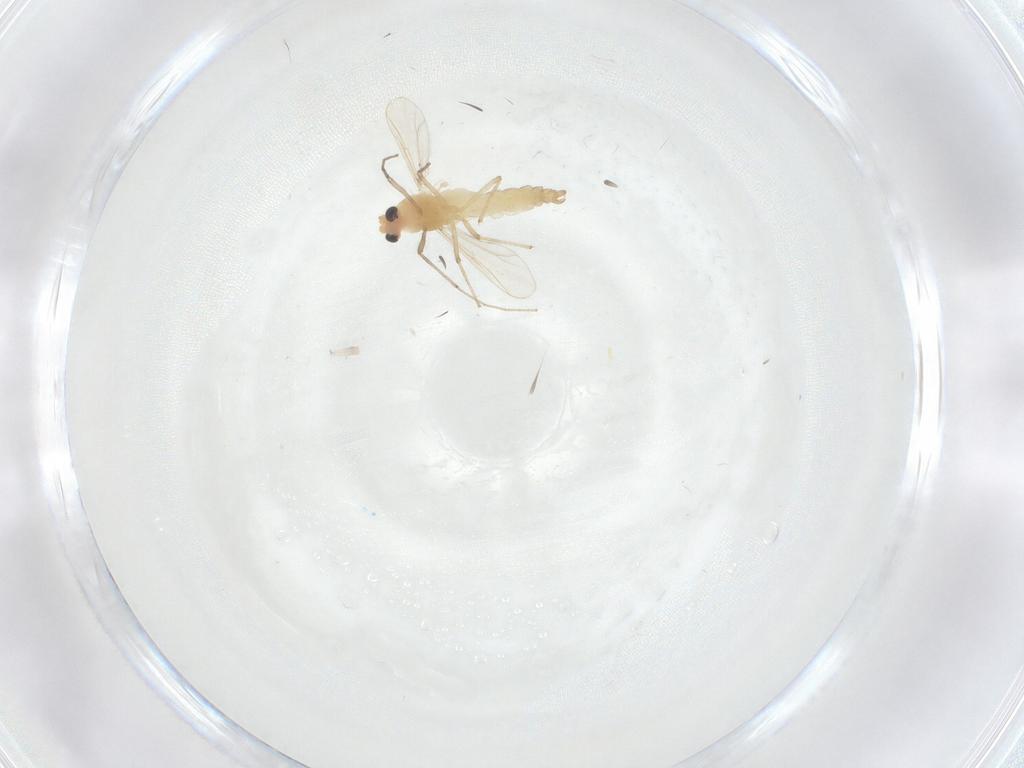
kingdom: Animalia
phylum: Arthropoda
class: Insecta
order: Diptera
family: Chironomidae
